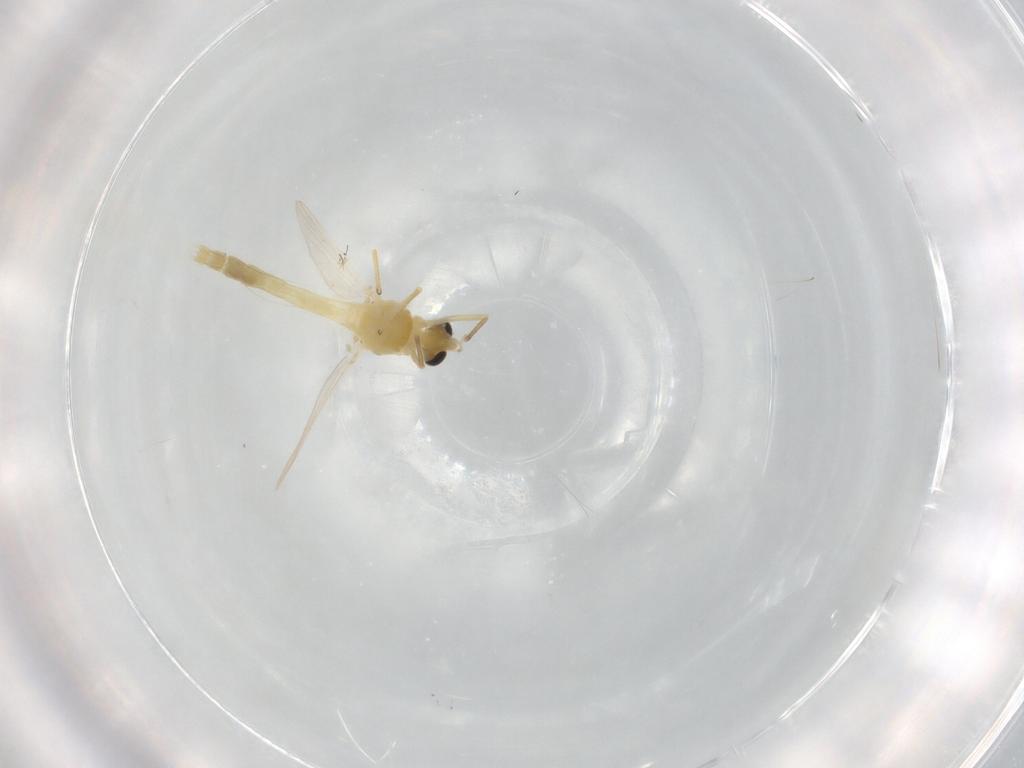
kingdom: Animalia
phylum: Arthropoda
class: Insecta
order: Diptera
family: Chironomidae
